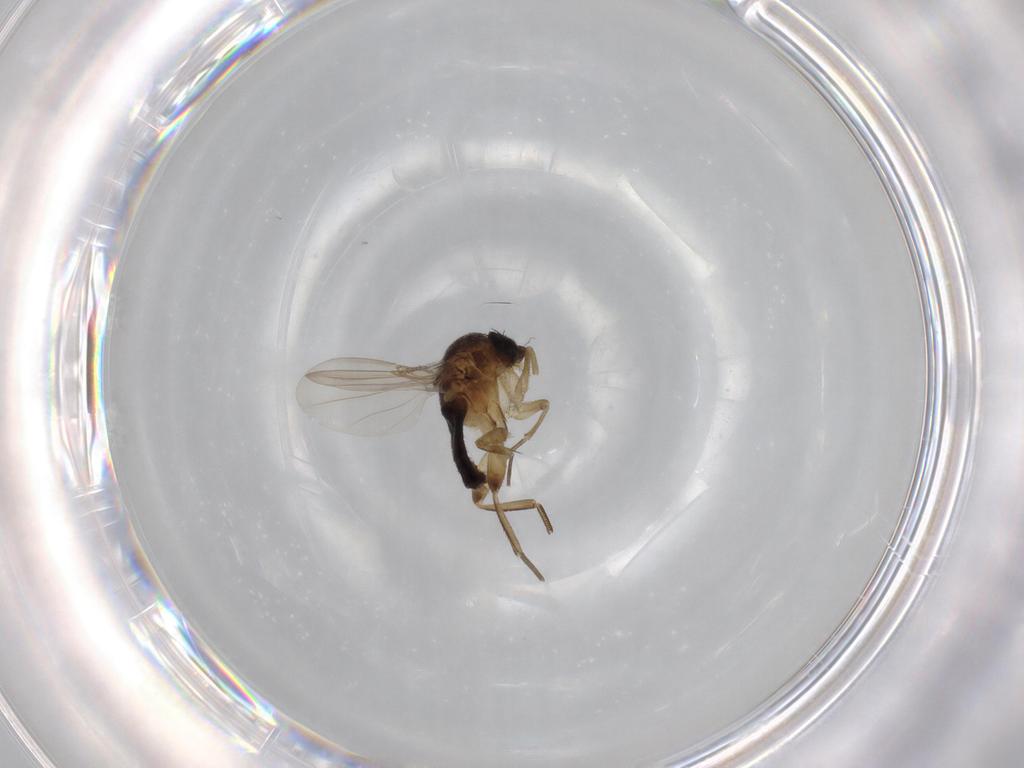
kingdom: Animalia
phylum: Arthropoda
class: Insecta
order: Diptera
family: Phoridae
